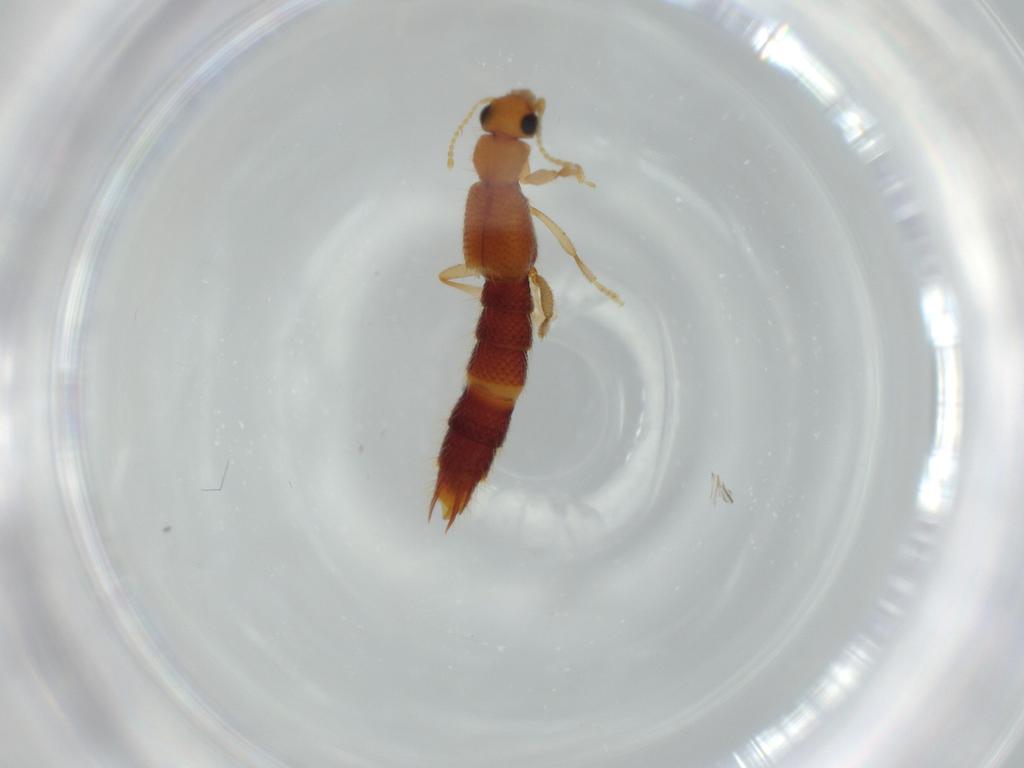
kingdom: Animalia
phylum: Arthropoda
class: Insecta
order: Coleoptera
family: Staphylinidae
